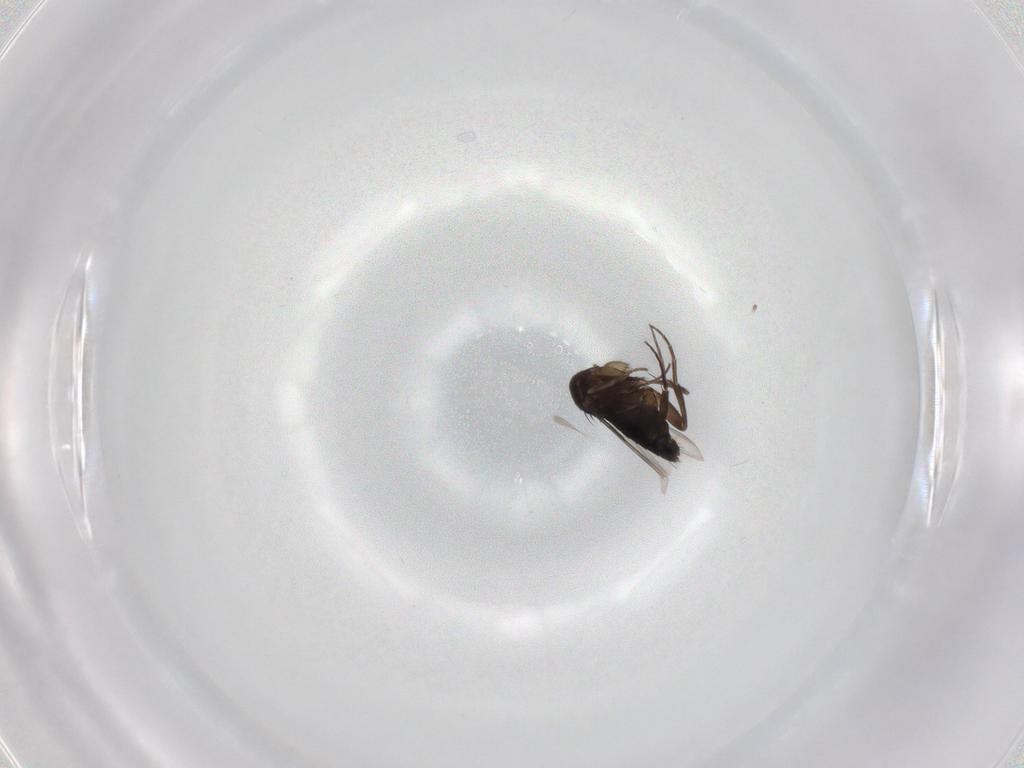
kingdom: Animalia
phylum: Arthropoda
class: Insecta
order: Diptera
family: Phoridae
